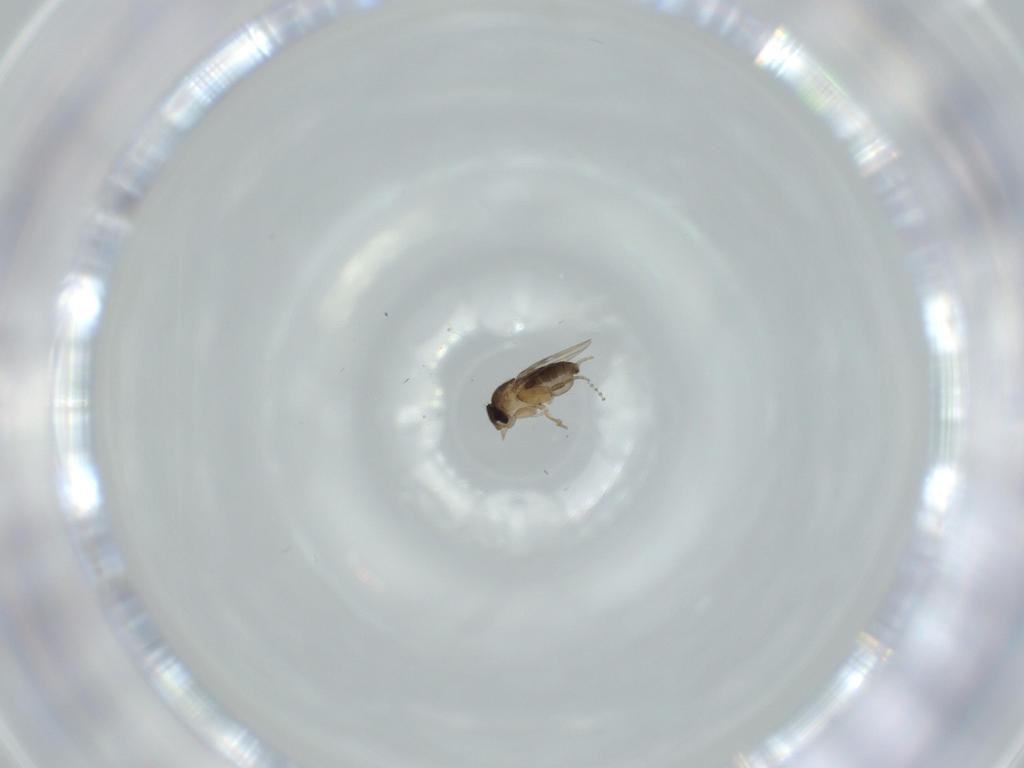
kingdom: Animalia
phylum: Arthropoda
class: Insecta
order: Diptera
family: Phoridae
